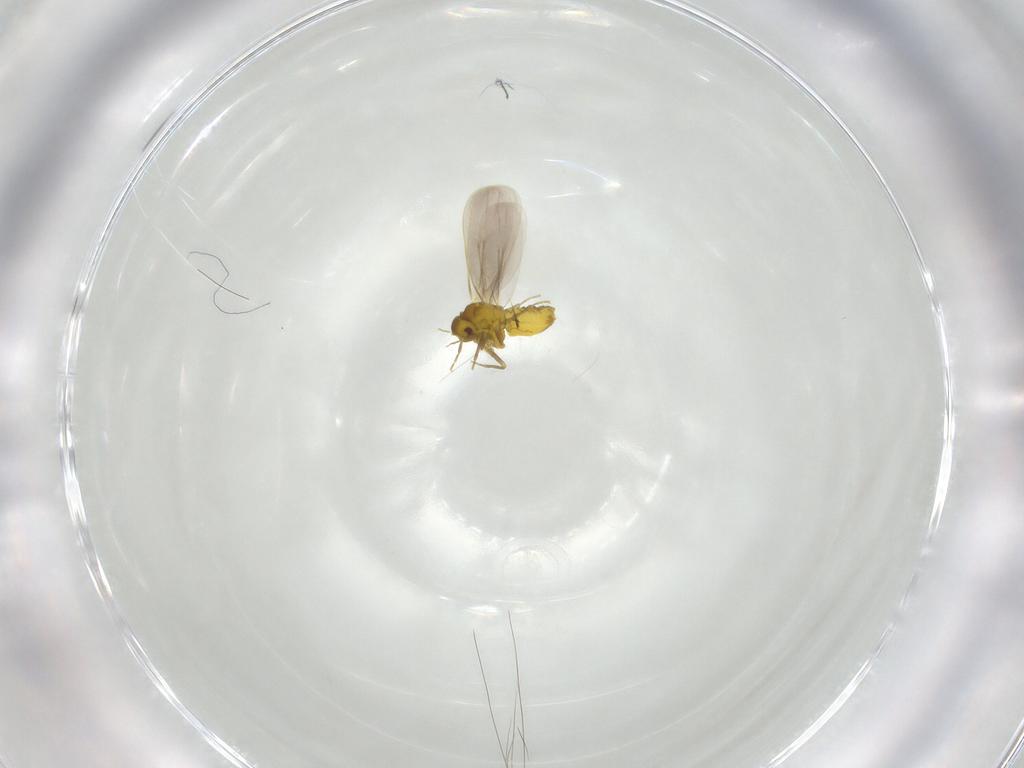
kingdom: Animalia
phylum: Arthropoda
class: Insecta
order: Hemiptera
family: Aleyrodidae
